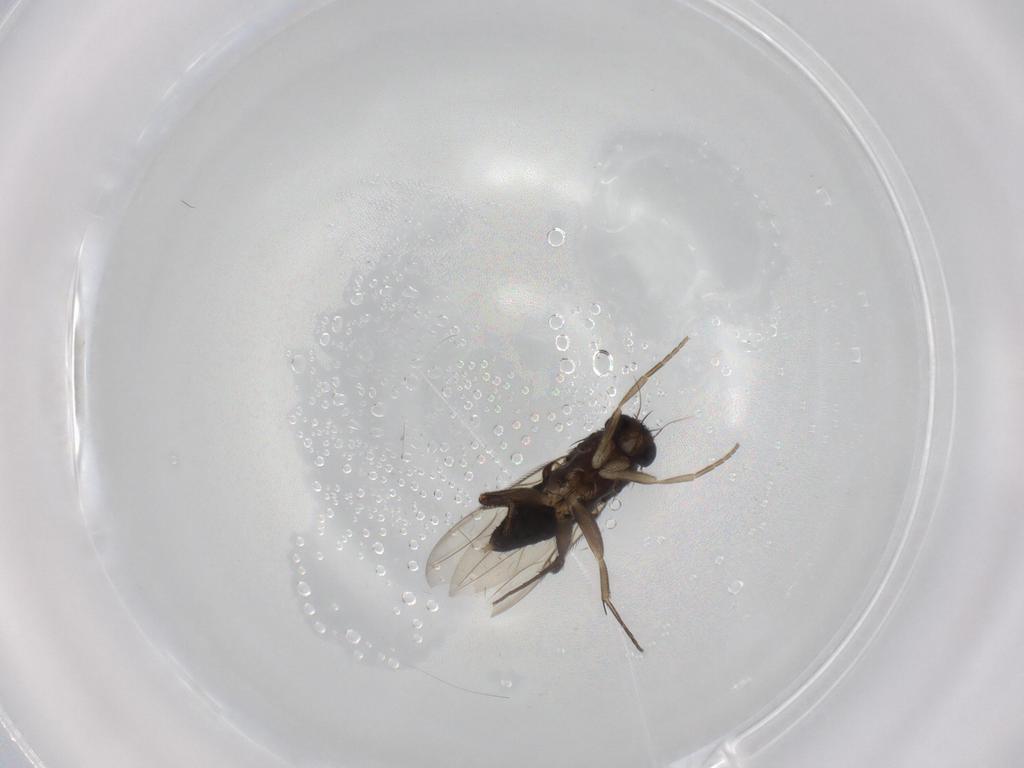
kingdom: Animalia
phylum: Arthropoda
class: Insecta
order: Diptera
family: Phoridae
